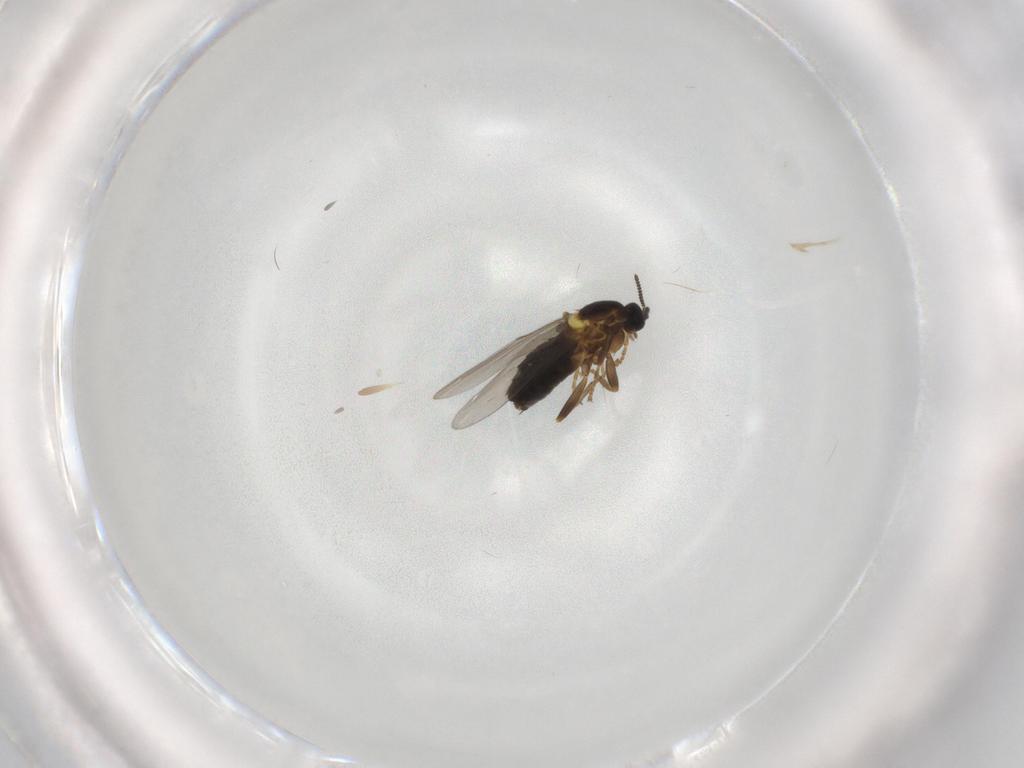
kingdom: Animalia
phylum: Arthropoda
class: Insecta
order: Diptera
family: Scatopsidae
